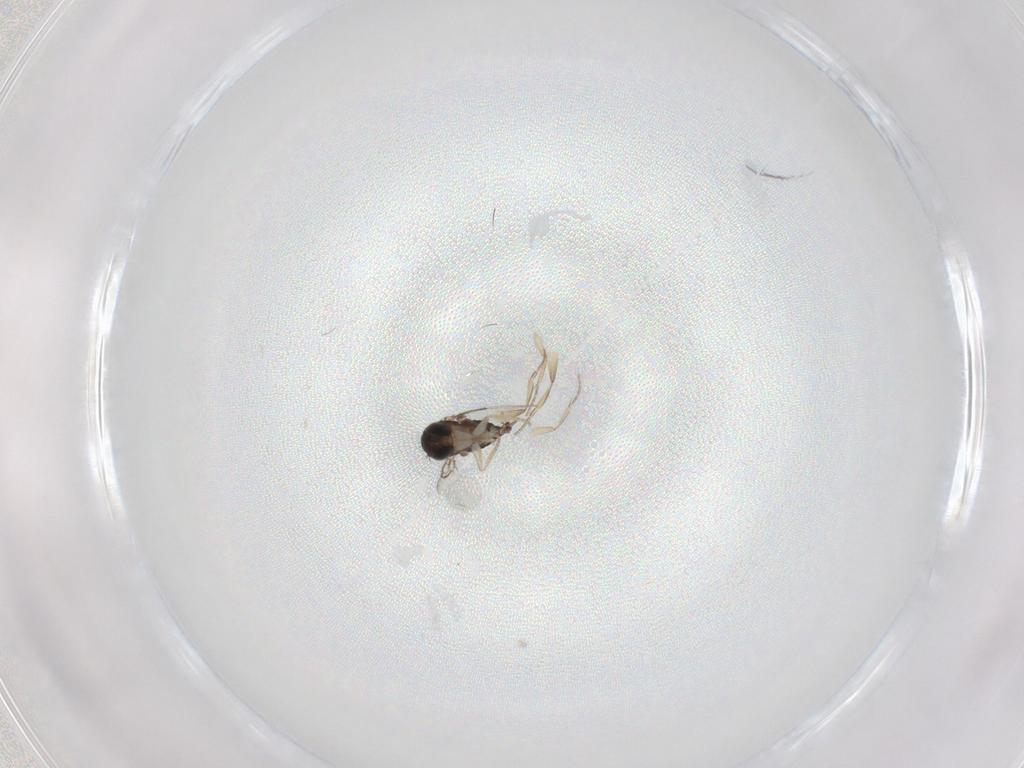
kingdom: Animalia
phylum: Arthropoda
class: Insecta
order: Diptera
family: Phoridae
